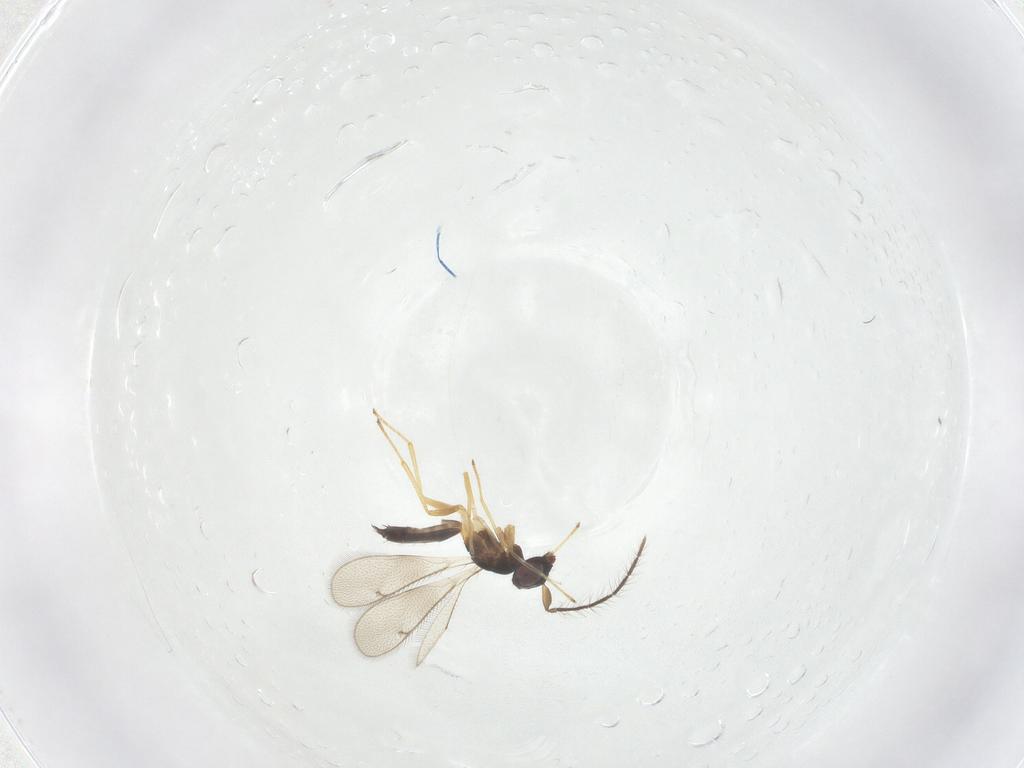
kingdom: Animalia
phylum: Arthropoda
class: Insecta
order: Hymenoptera
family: Eulophidae
